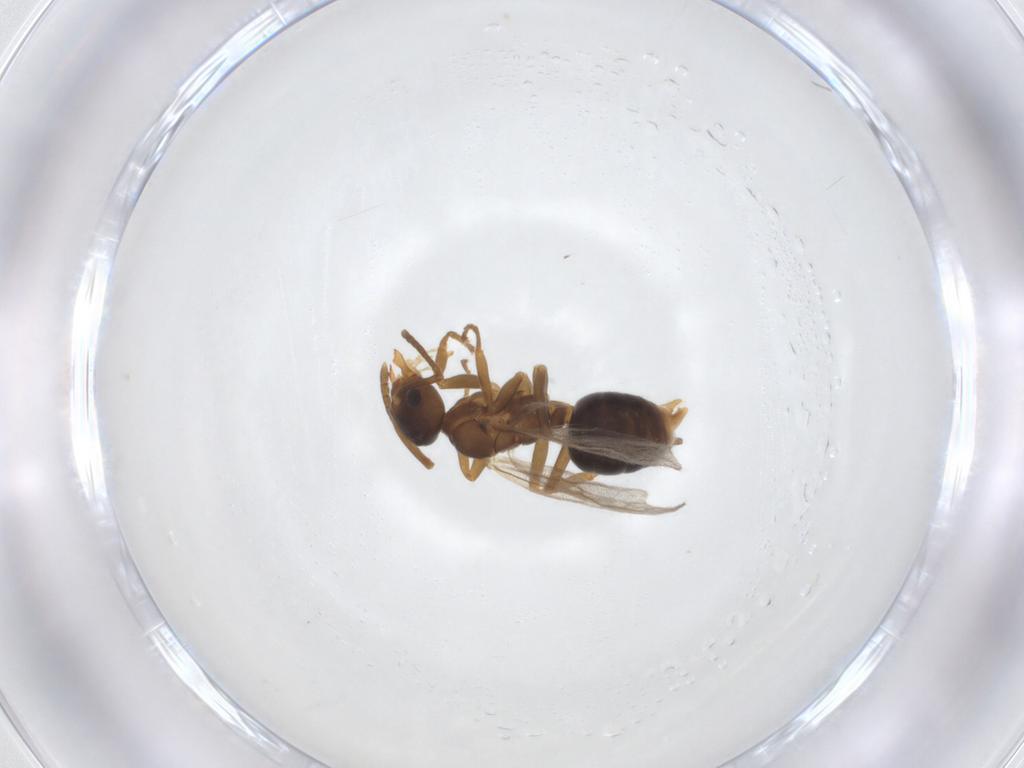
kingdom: Animalia
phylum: Arthropoda
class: Insecta
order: Hymenoptera
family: Formicidae
